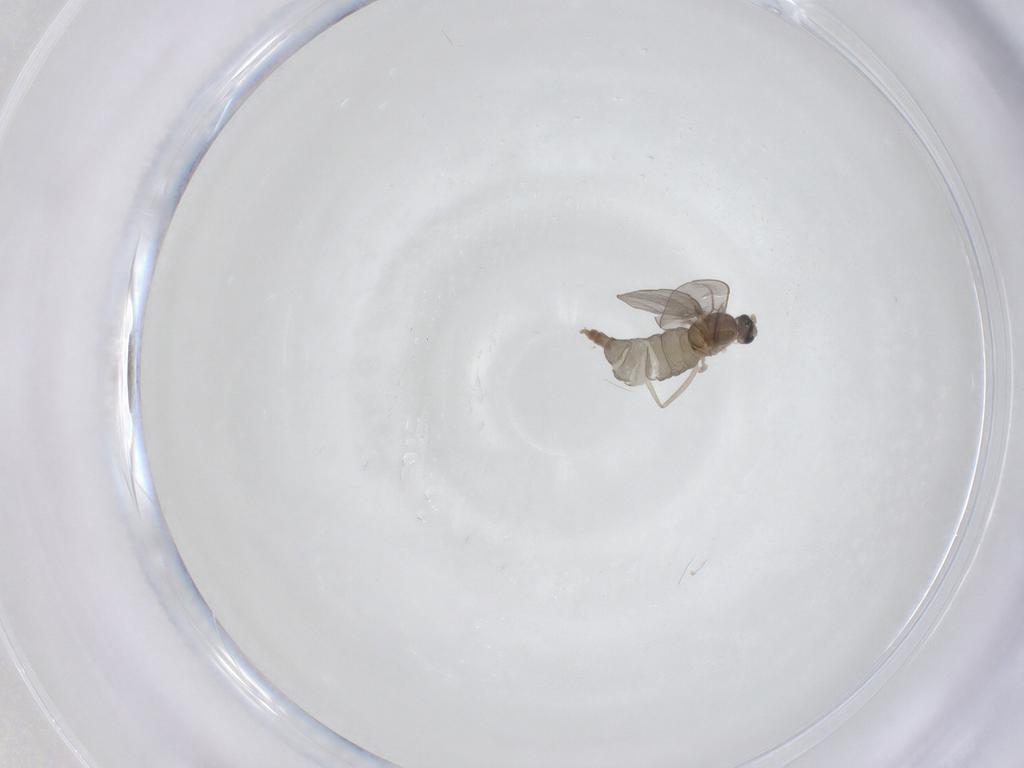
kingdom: Animalia
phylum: Arthropoda
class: Insecta
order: Diptera
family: Cecidomyiidae
